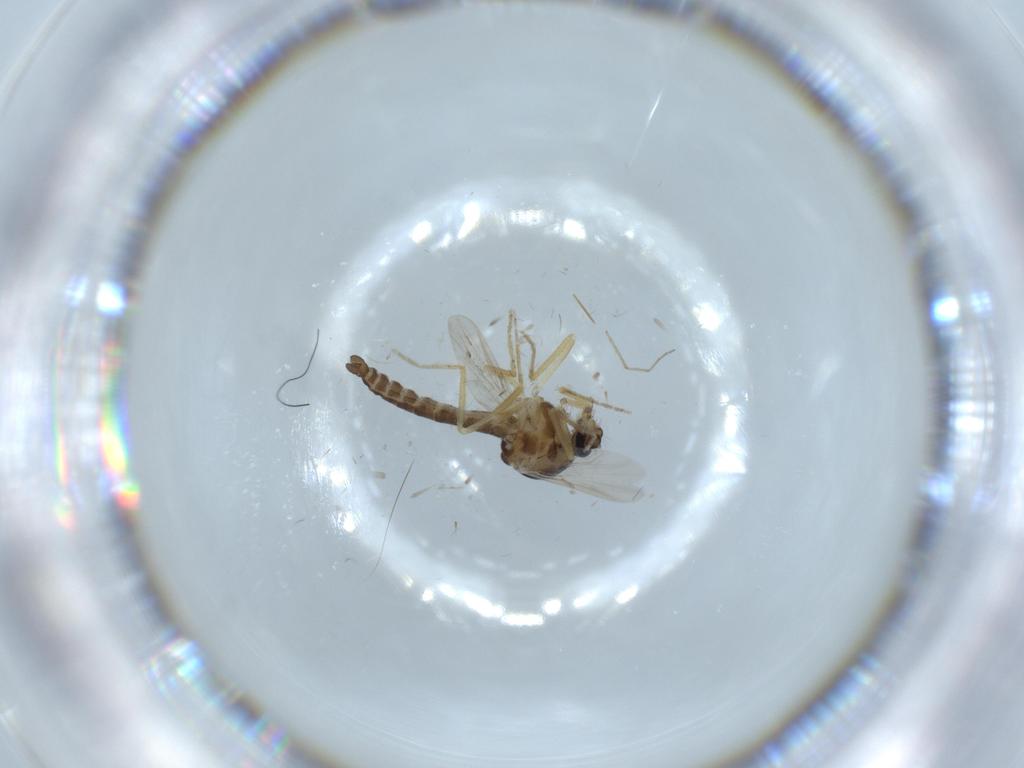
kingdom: Animalia
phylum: Arthropoda
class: Insecta
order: Diptera
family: Ceratopogonidae
